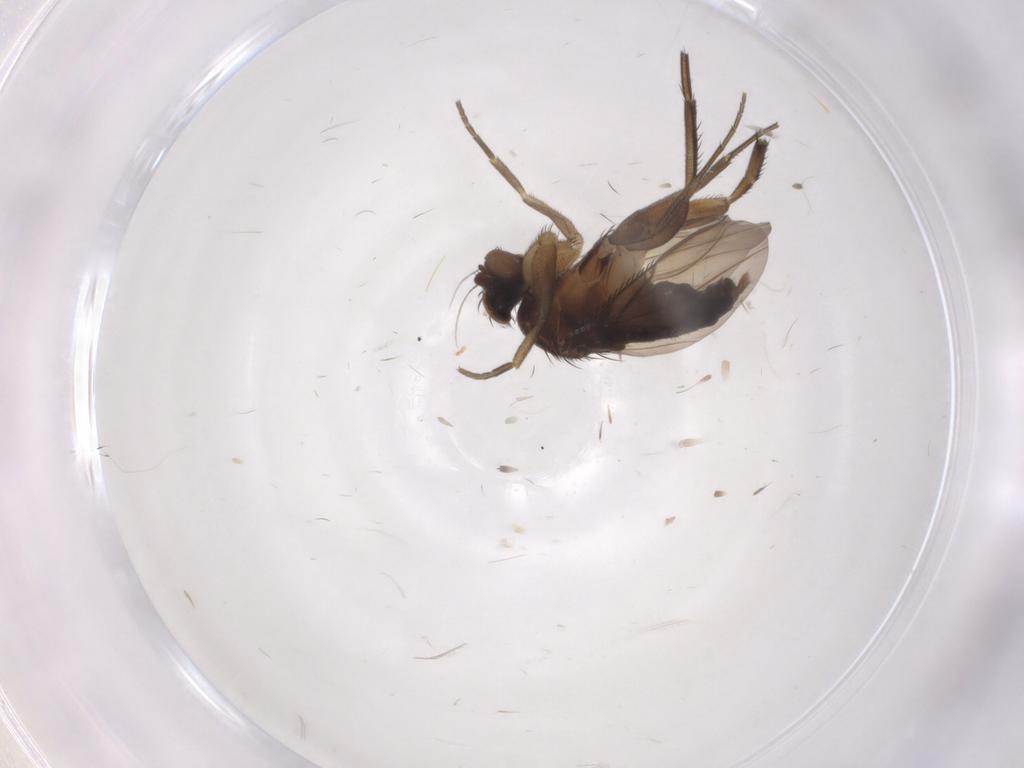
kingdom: Animalia
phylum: Arthropoda
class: Insecta
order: Diptera
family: Phoridae
